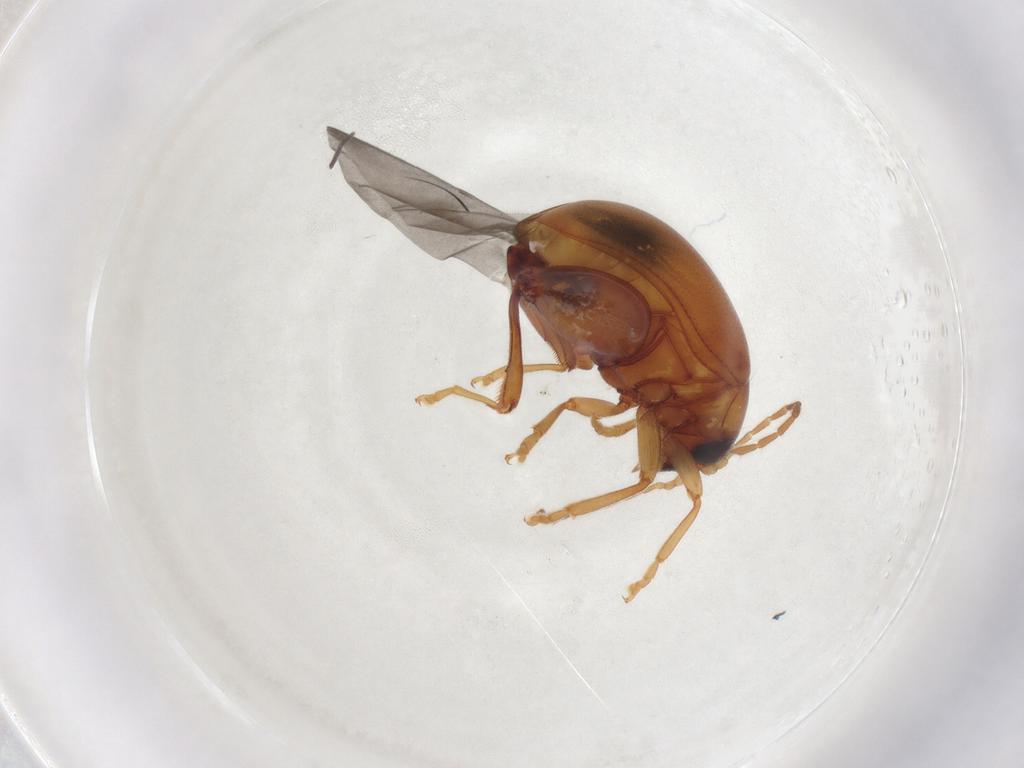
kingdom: Animalia
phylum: Arthropoda
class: Insecta
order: Coleoptera
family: Chrysomelidae
